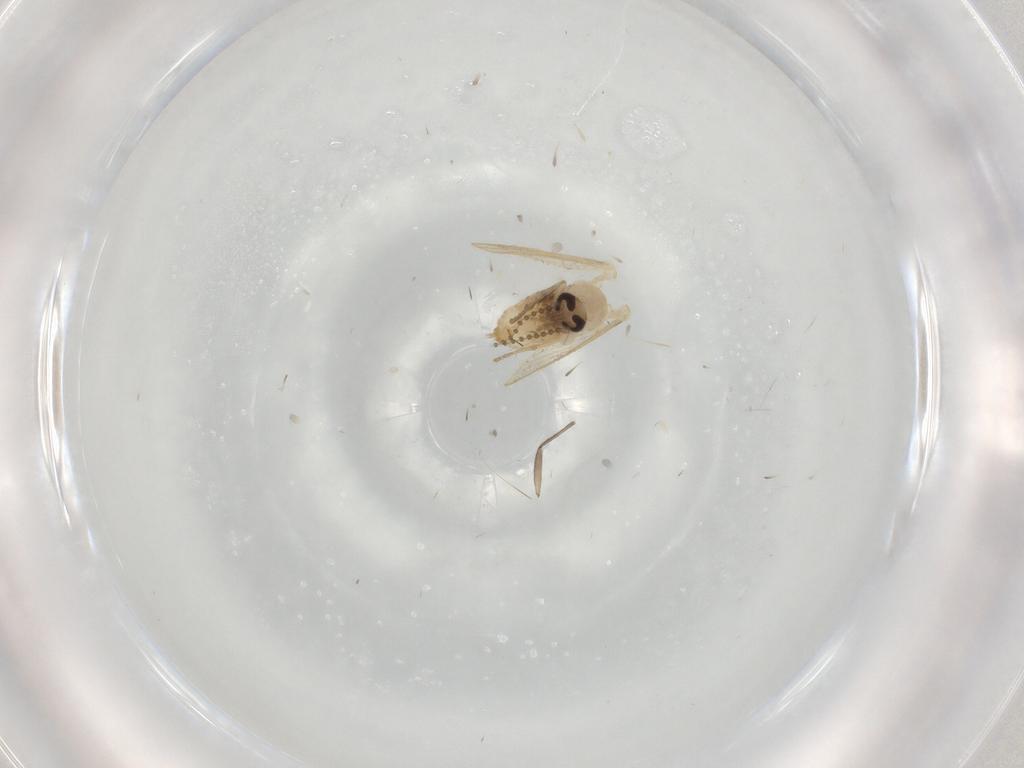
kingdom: Animalia
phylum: Arthropoda
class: Insecta
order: Diptera
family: Psychodidae
